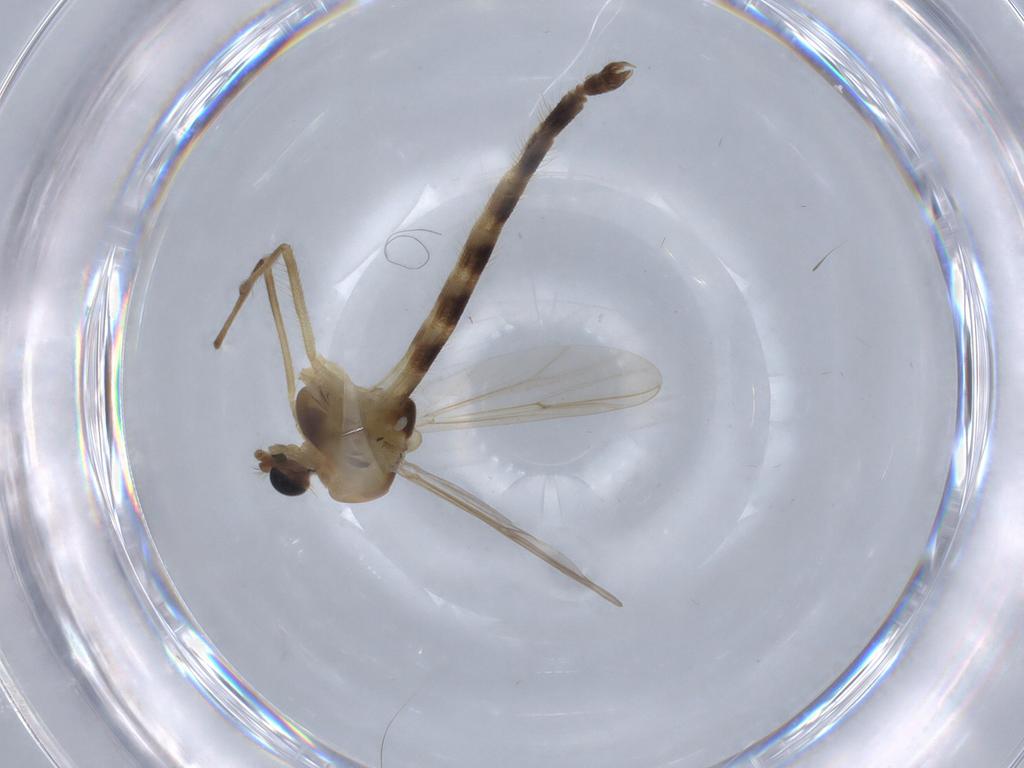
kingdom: Animalia
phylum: Arthropoda
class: Insecta
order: Diptera
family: Chironomidae
